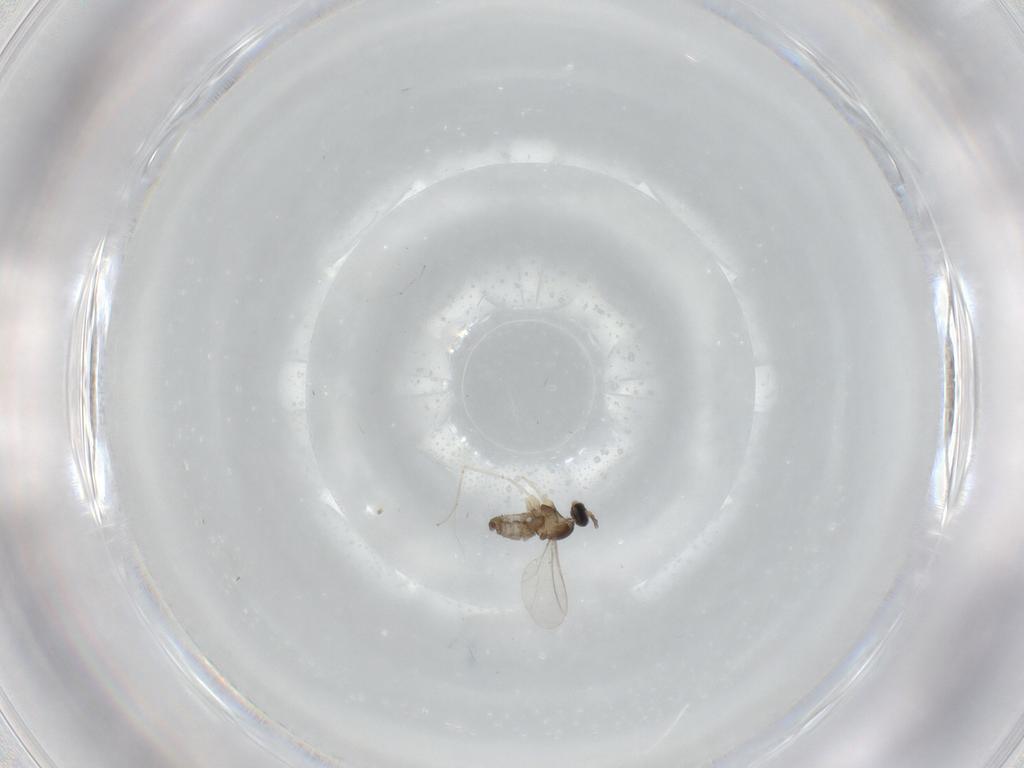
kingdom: Animalia
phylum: Arthropoda
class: Insecta
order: Diptera
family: Cecidomyiidae
